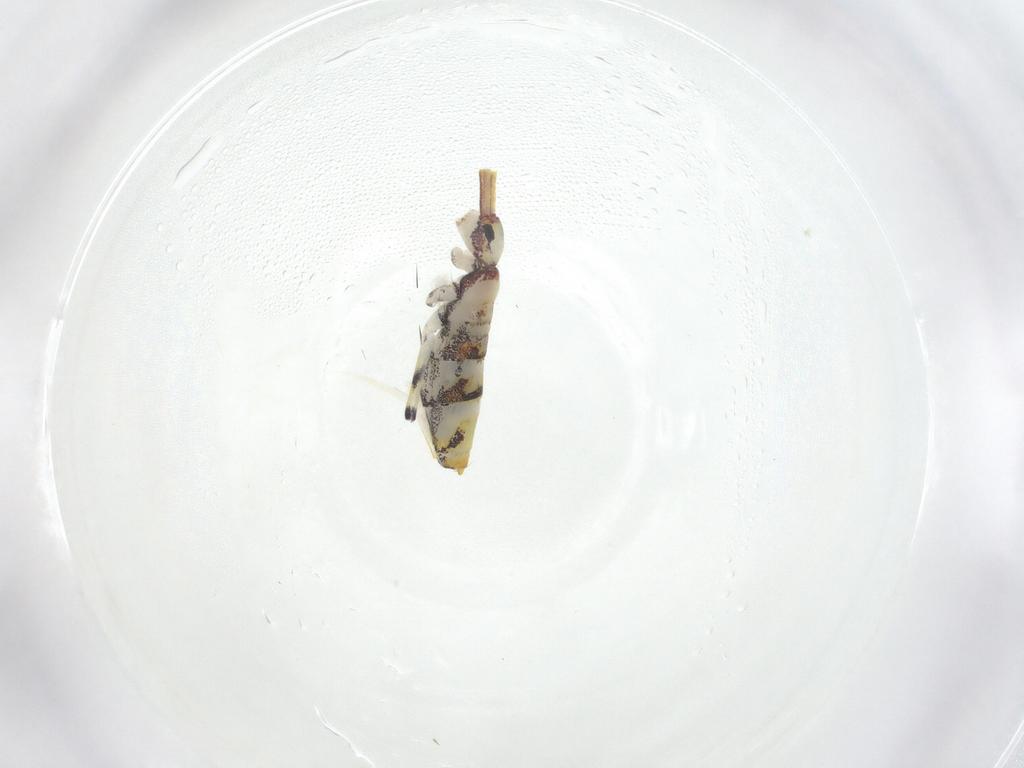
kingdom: Animalia
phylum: Arthropoda
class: Collembola
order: Entomobryomorpha
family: Entomobryidae
